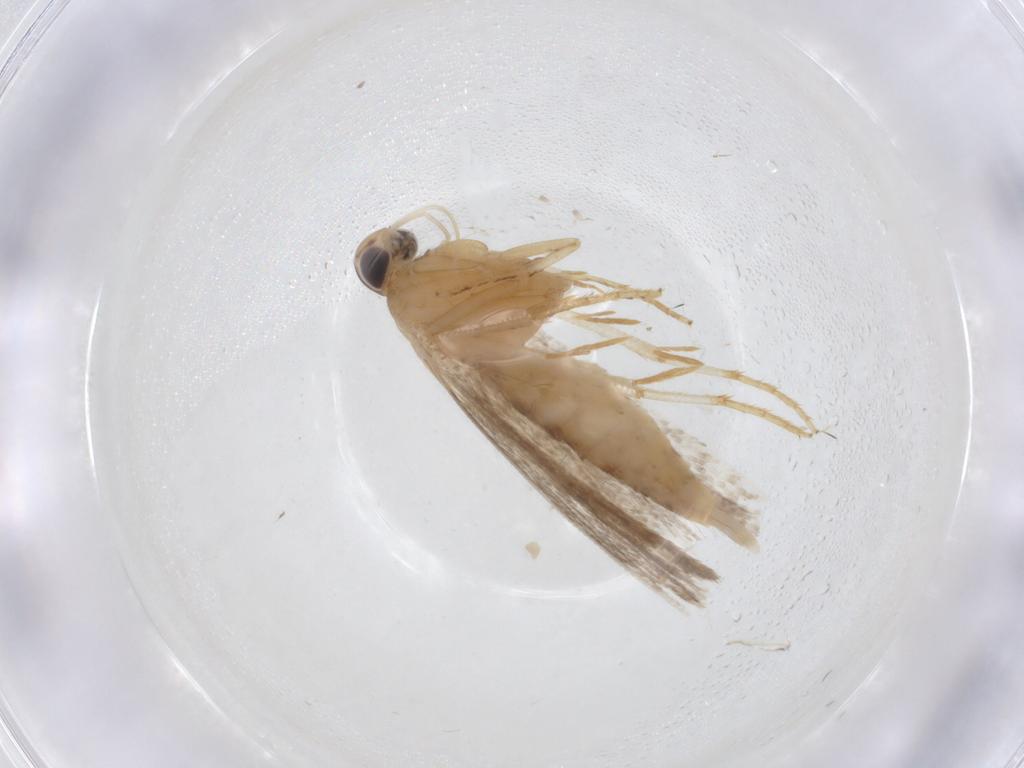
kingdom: Animalia
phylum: Arthropoda
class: Insecta
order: Lepidoptera
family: Gelechiidae
